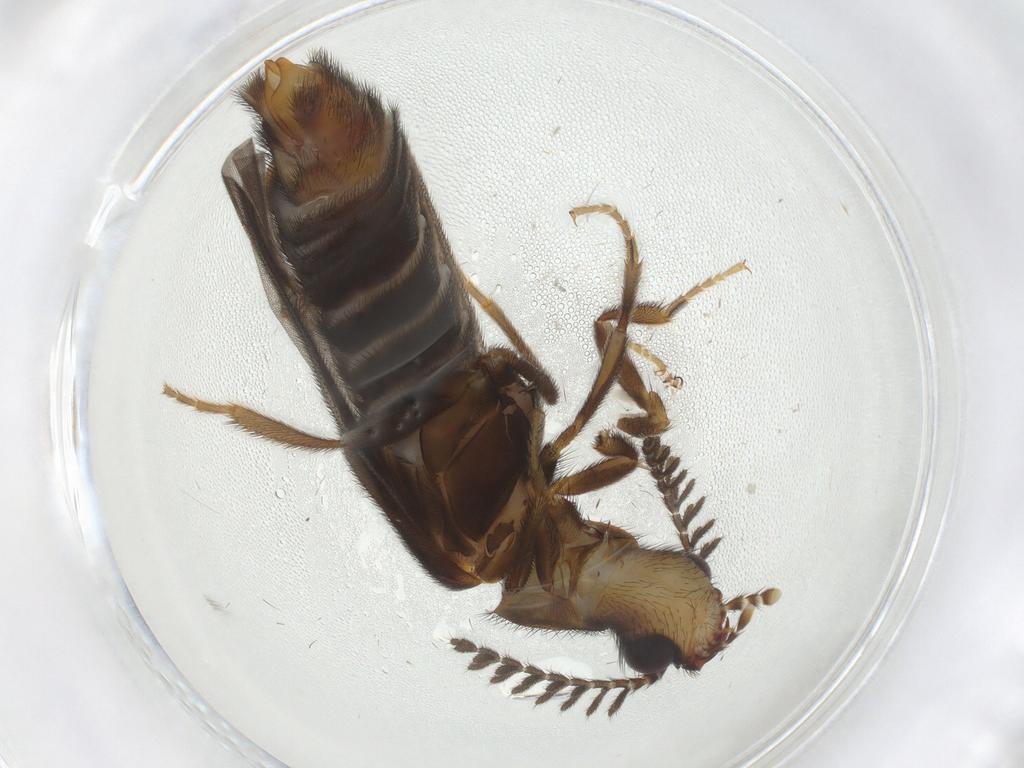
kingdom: Animalia
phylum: Arthropoda
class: Insecta
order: Coleoptera
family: Phengodidae
